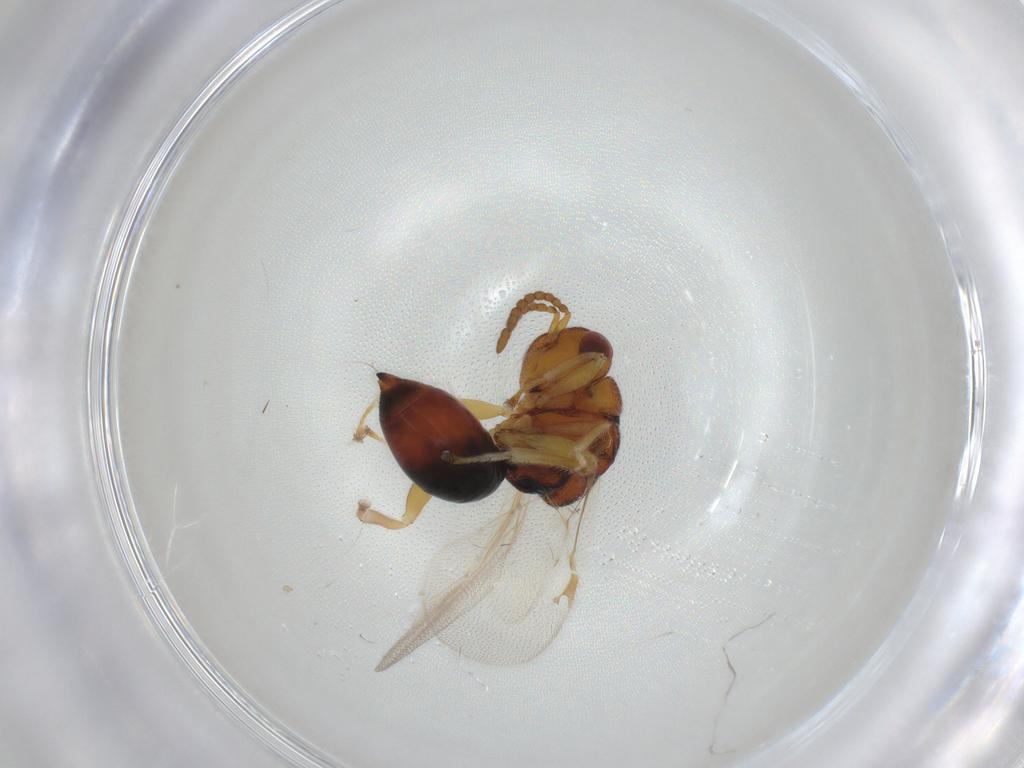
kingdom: Animalia
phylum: Arthropoda
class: Insecta
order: Hymenoptera
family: Eurytomidae
